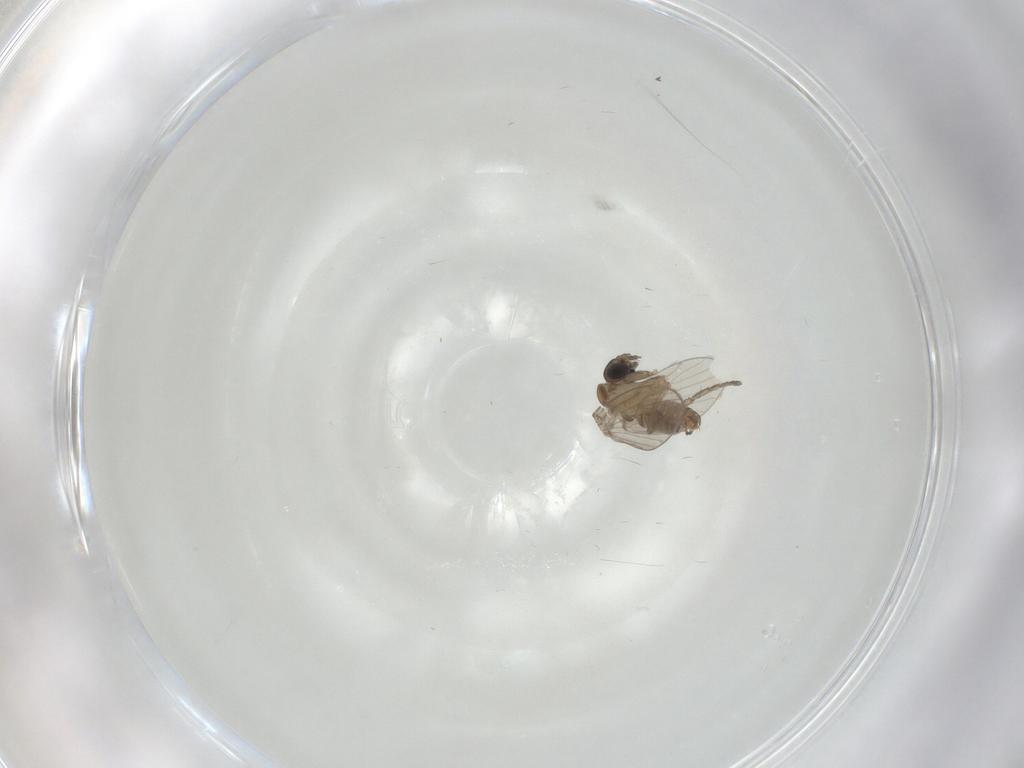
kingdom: Animalia
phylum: Arthropoda
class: Insecta
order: Diptera
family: Psychodidae
